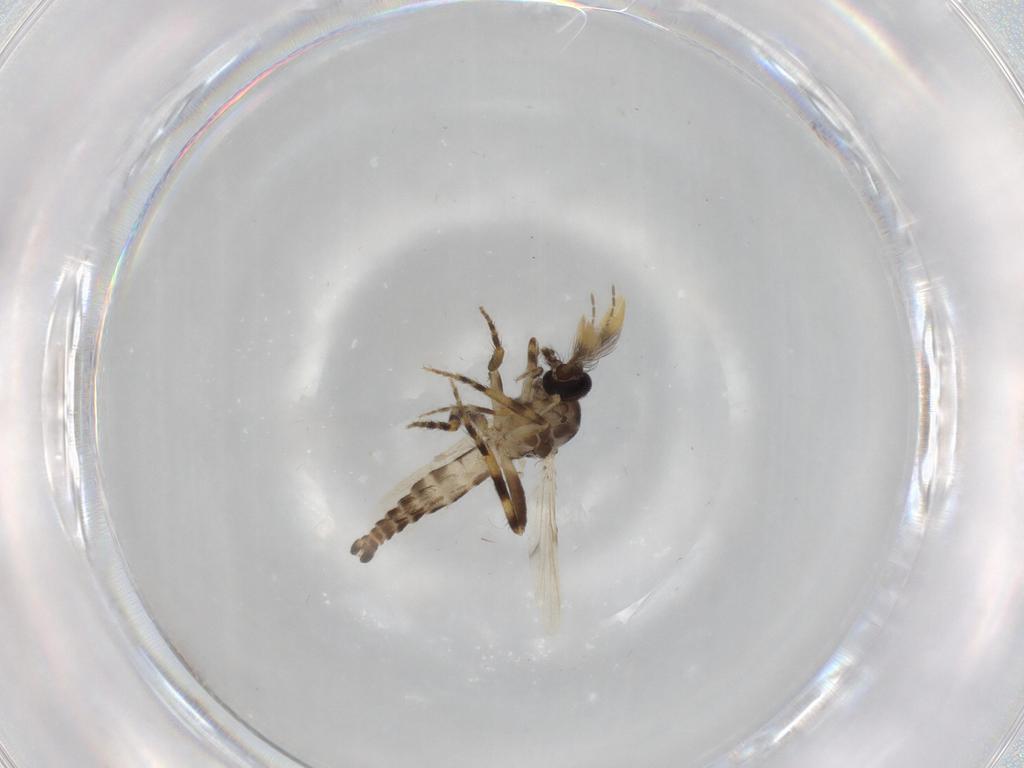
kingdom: Animalia
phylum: Arthropoda
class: Insecta
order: Diptera
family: Ceratopogonidae
